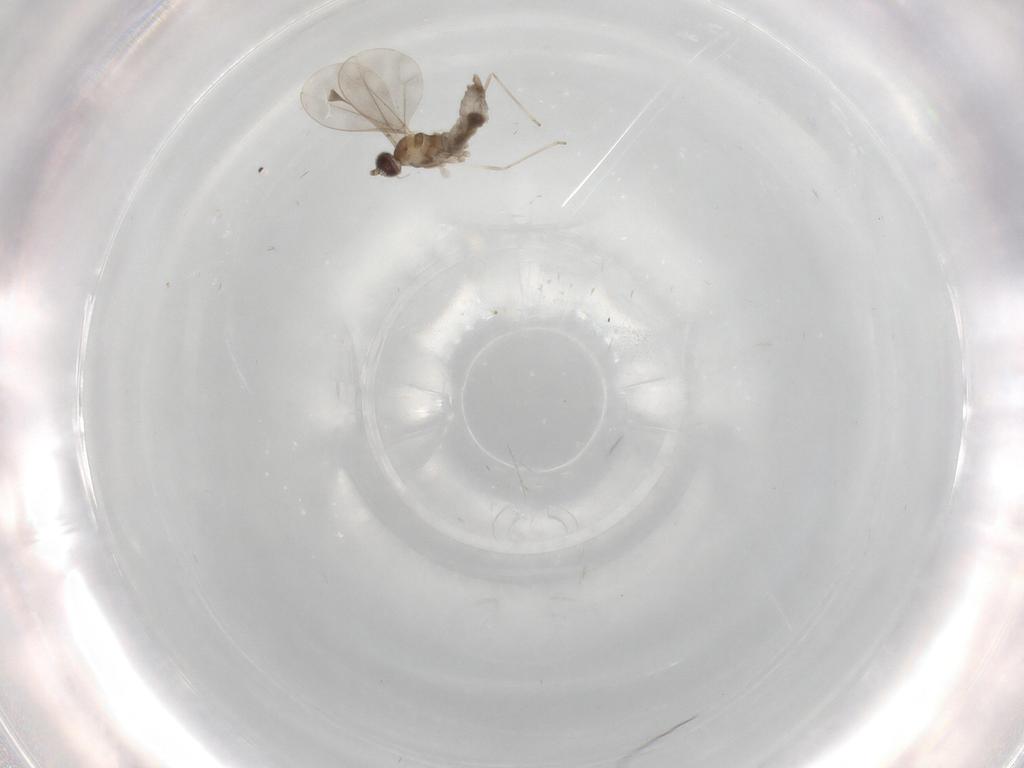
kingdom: Animalia
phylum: Arthropoda
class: Insecta
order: Diptera
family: Cecidomyiidae
